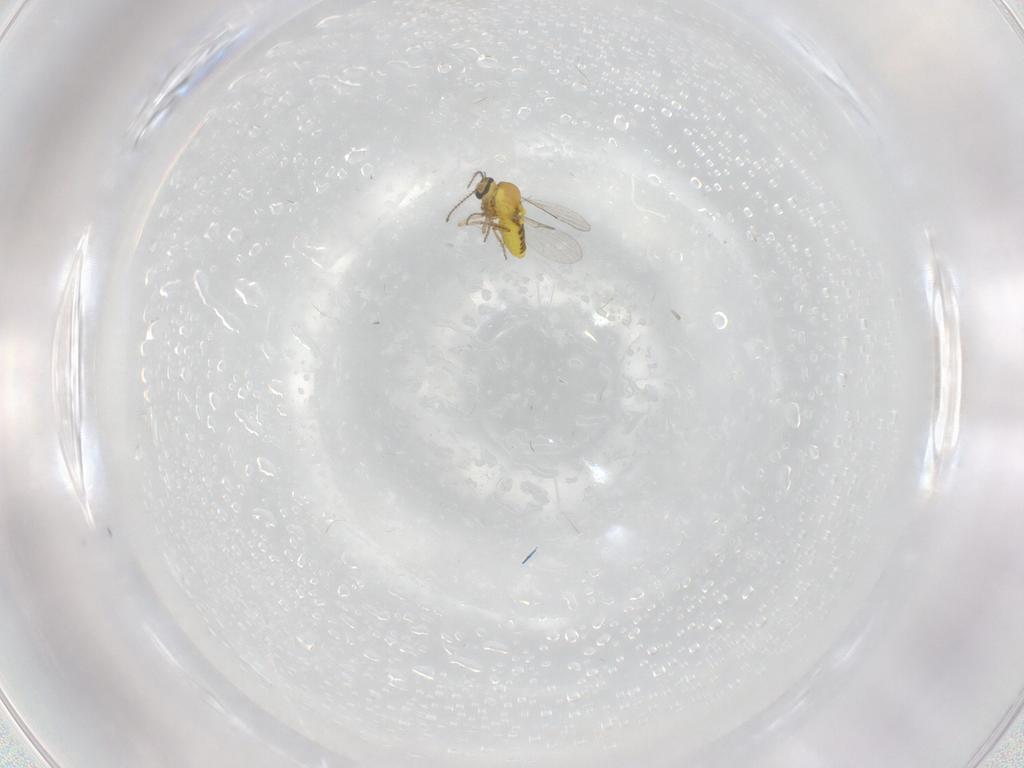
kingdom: Animalia
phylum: Arthropoda
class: Insecta
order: Diptera
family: Ceratopogonidae
